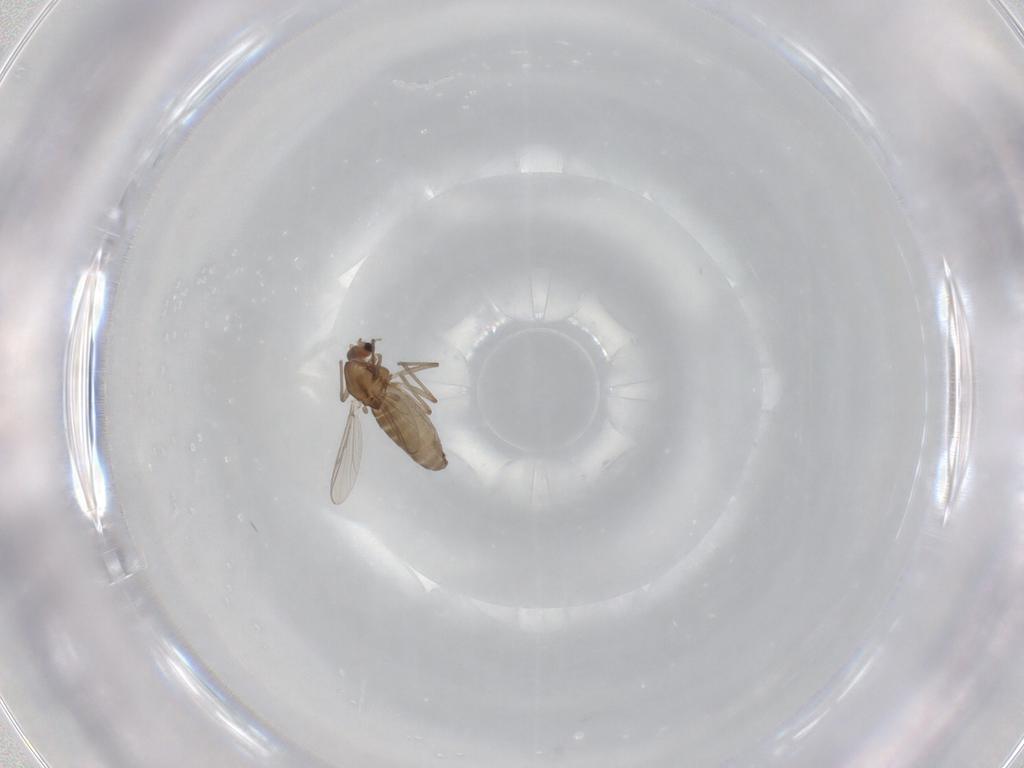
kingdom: Animalia
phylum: Arthropoda
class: Insecta
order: Diptera
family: Chironomidae
